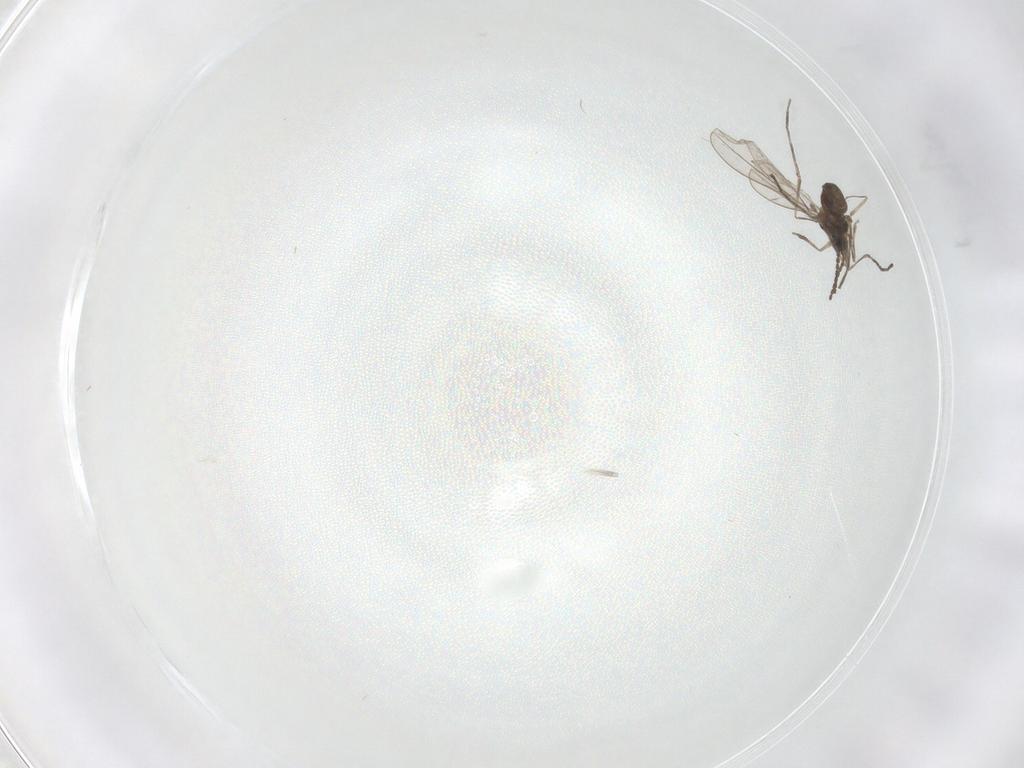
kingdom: Animalia
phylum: Arthropoda
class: Insecta
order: Diptera
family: Cecidomyiidae
